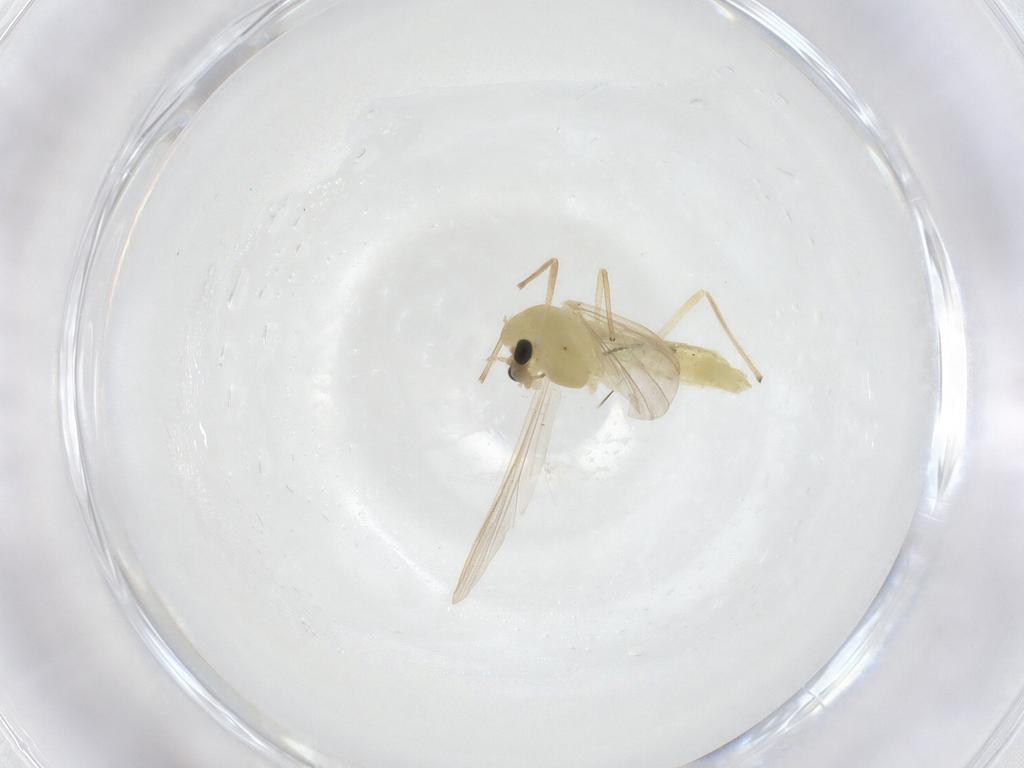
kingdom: Animalia
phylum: Arthropoda
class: Insecta
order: Diptera
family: Chironomidae
